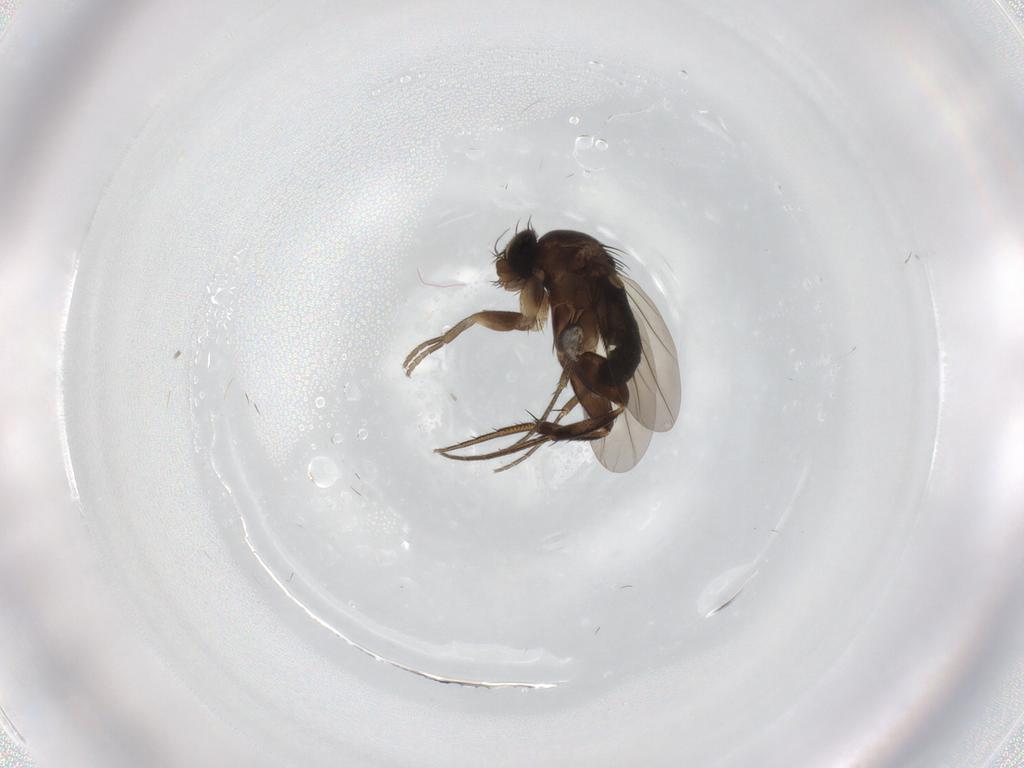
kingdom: Animalia
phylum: Arthropoda
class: Insecta
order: Diptera
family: Phoridae
